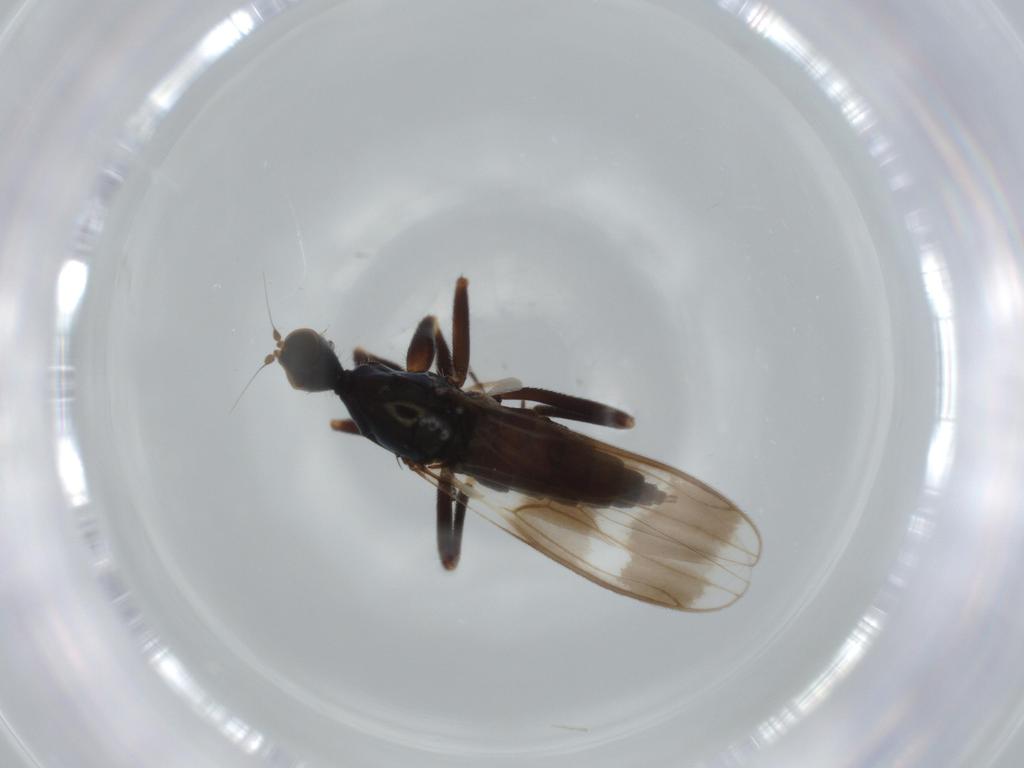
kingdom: Animalia
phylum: Arthropoda
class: Insecta
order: Diptera
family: Hybotidae
